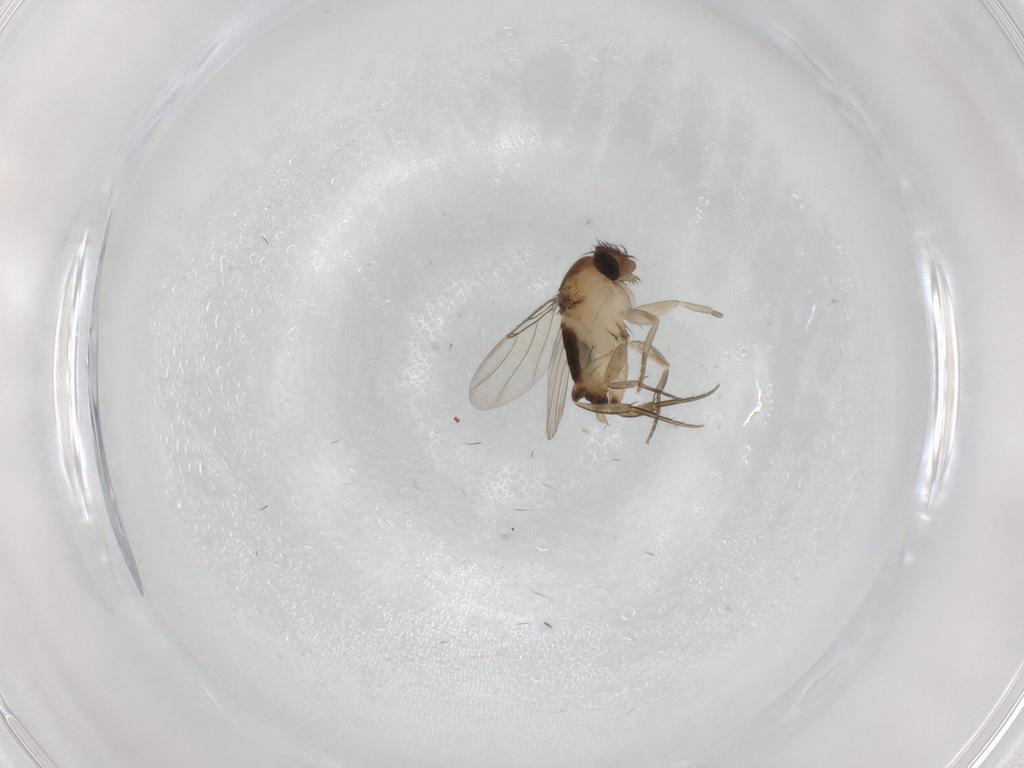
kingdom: Animalia
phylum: Arthropoda
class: Insecta
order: Diptera
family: Phoridae
